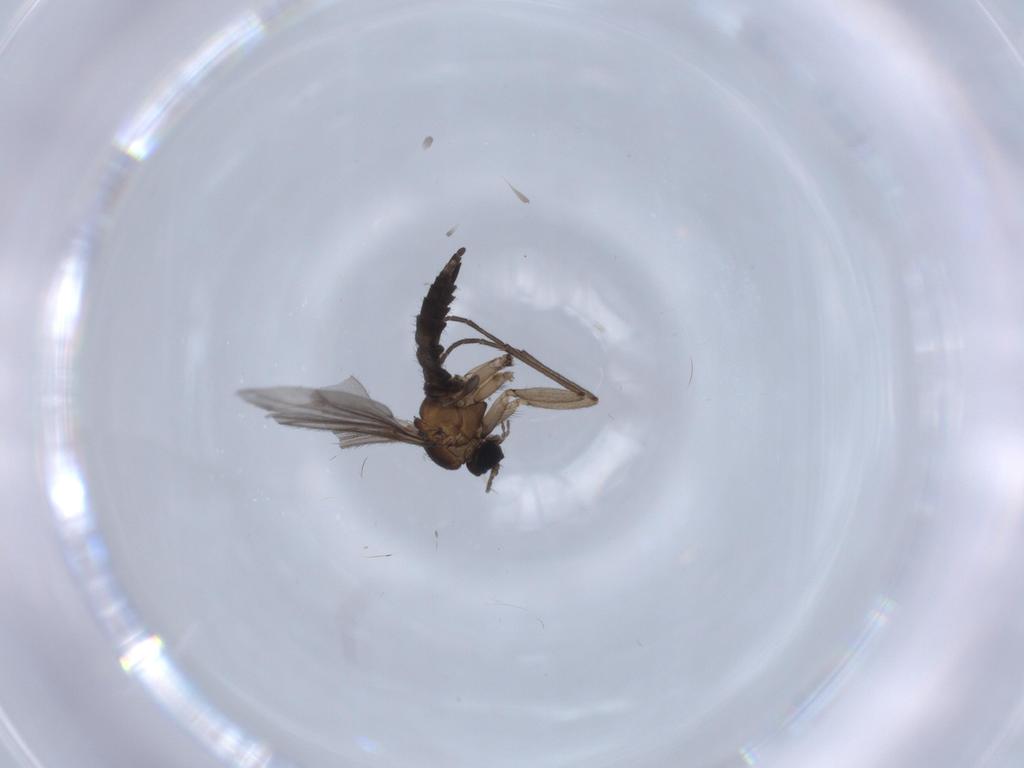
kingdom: Animalia
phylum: Arthropoda
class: Insecta
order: Diptera
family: Sciaridae
